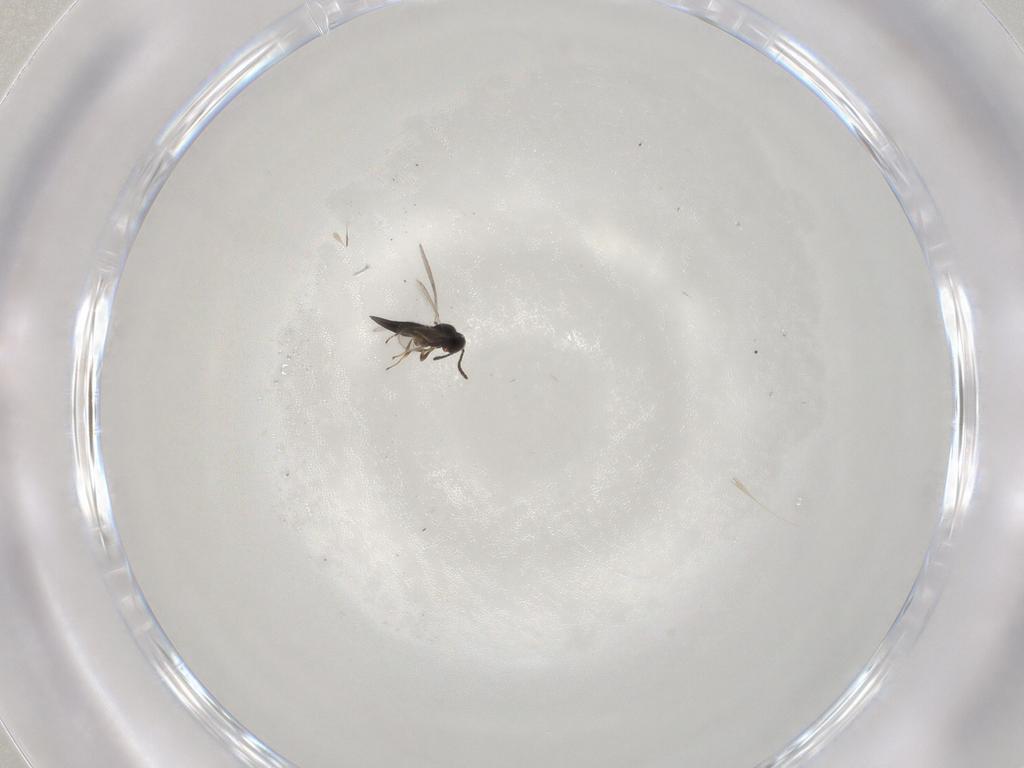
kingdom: Animalia
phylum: Arthropoda
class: Insecta
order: Hymenoptera
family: Scelionidae
